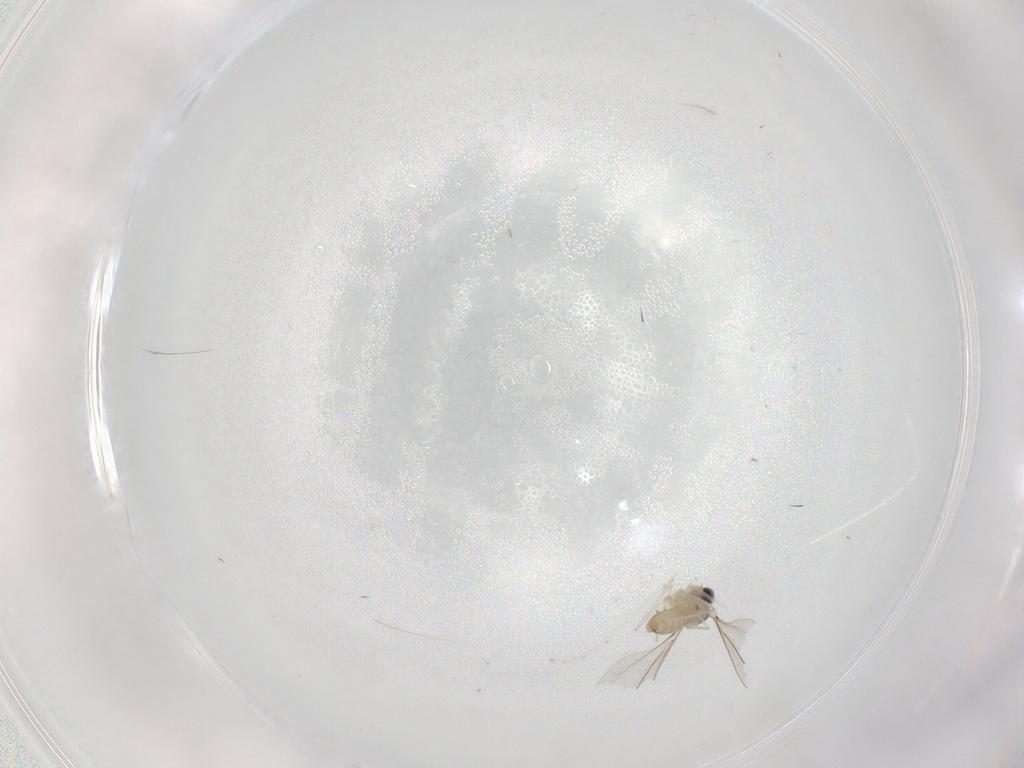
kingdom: Animalia
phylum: Arthropoda
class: Insecta
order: Diptera
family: Cecidomyiidae
